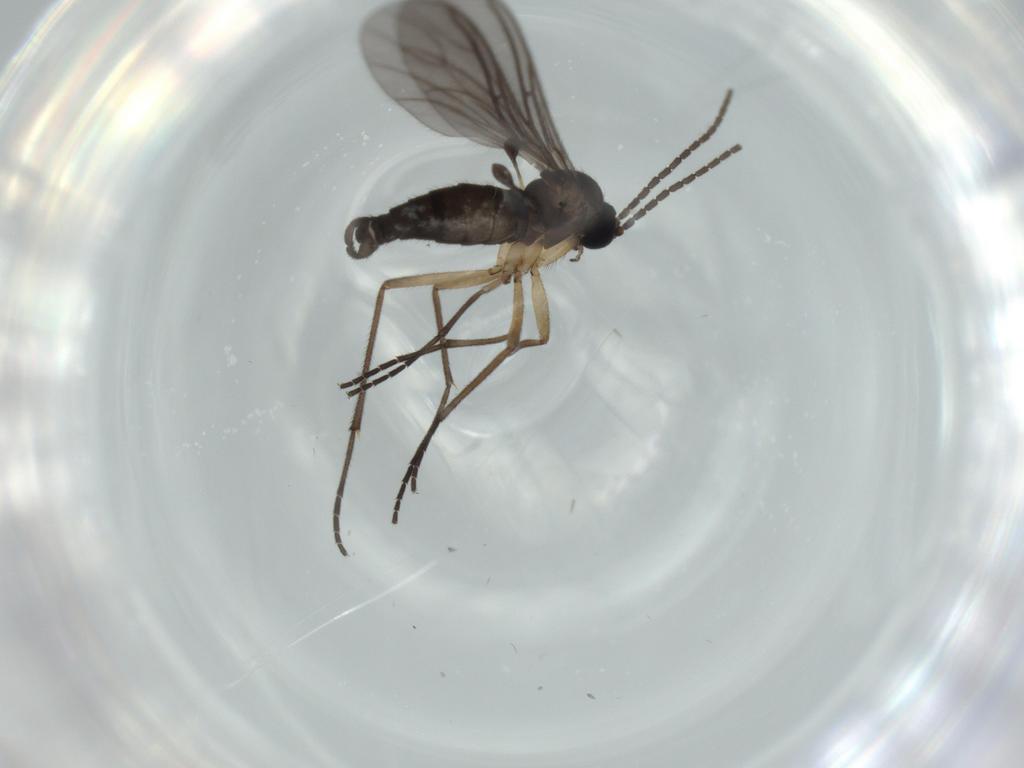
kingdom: Animalia
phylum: Arthropoda
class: Insecta
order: Diptera
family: Sciaridae
